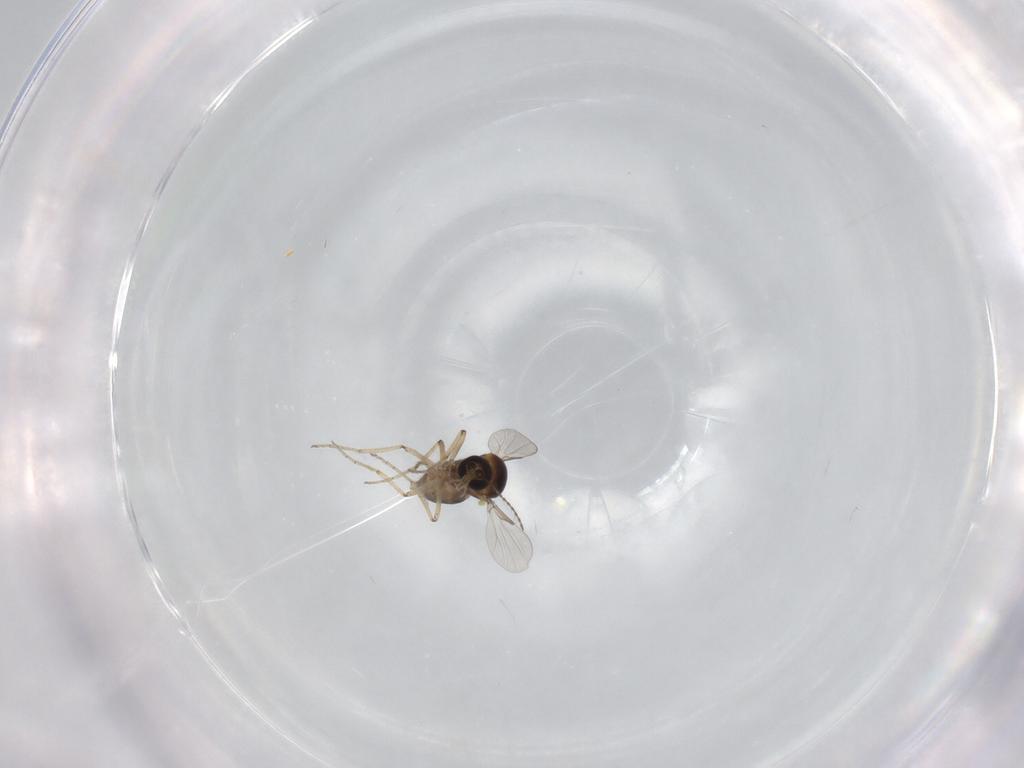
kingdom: Animalia
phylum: Arthropoda
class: Insecta
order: Diptera
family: Ceratopogonidae
